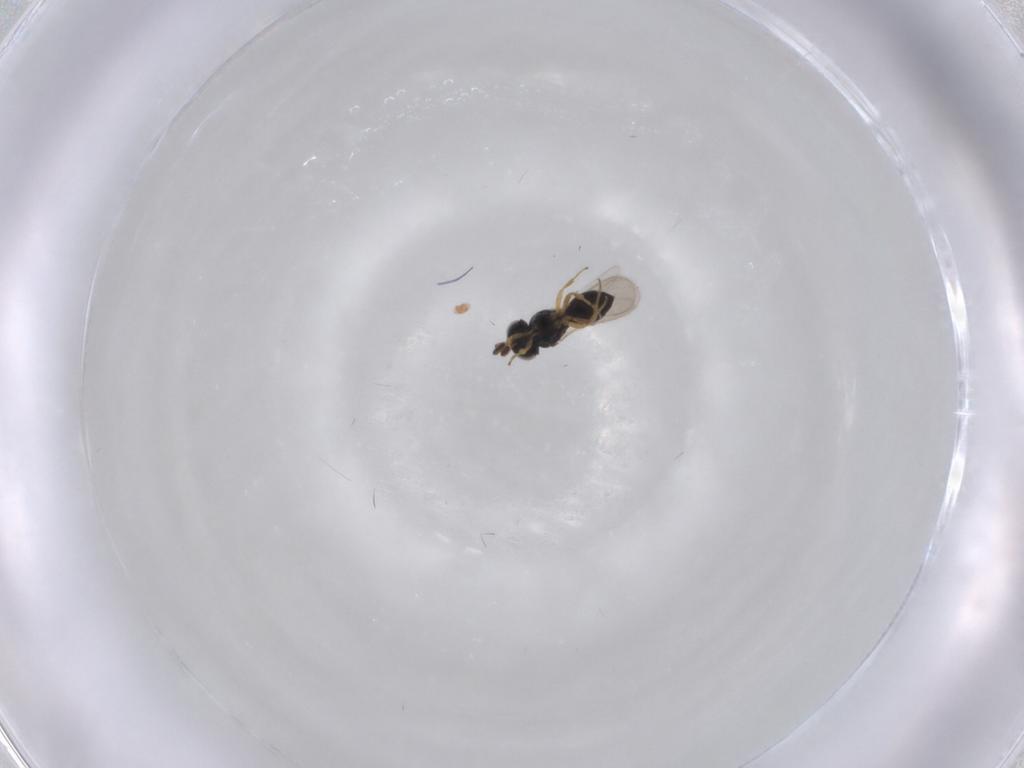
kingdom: Animalia
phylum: Arthropoda
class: Insecta
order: Hymenoptera
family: Scelionidae
